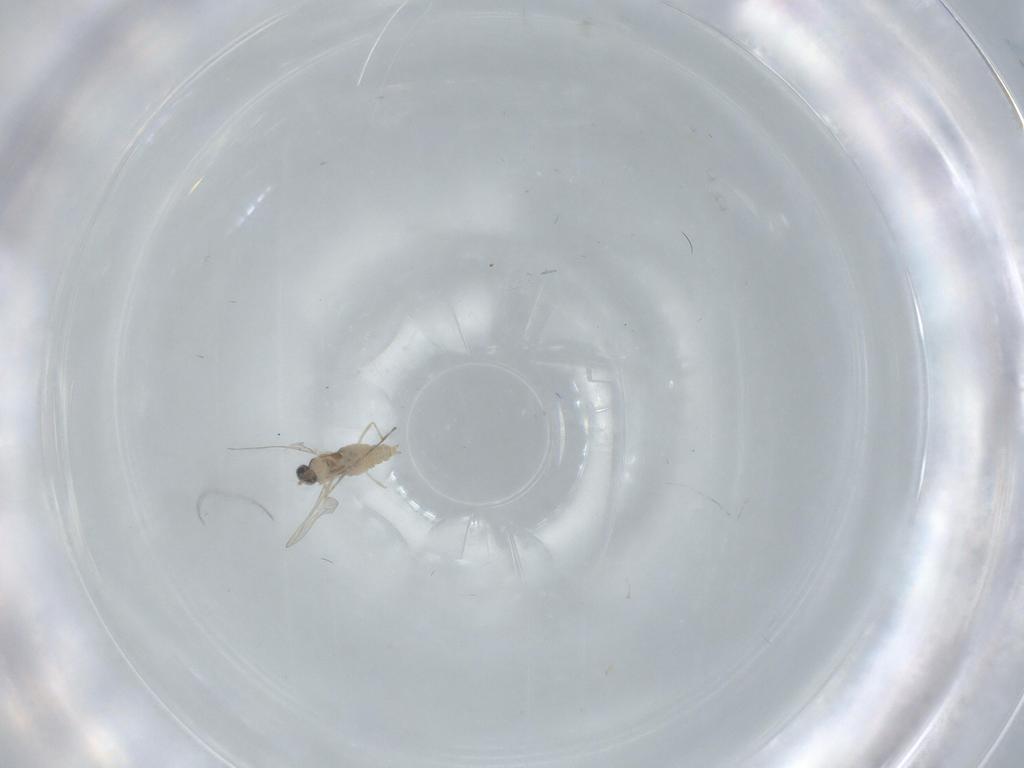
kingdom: Animalia
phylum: Arthropoda
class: Insecta
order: Diptera
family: Cecidomyiidae
